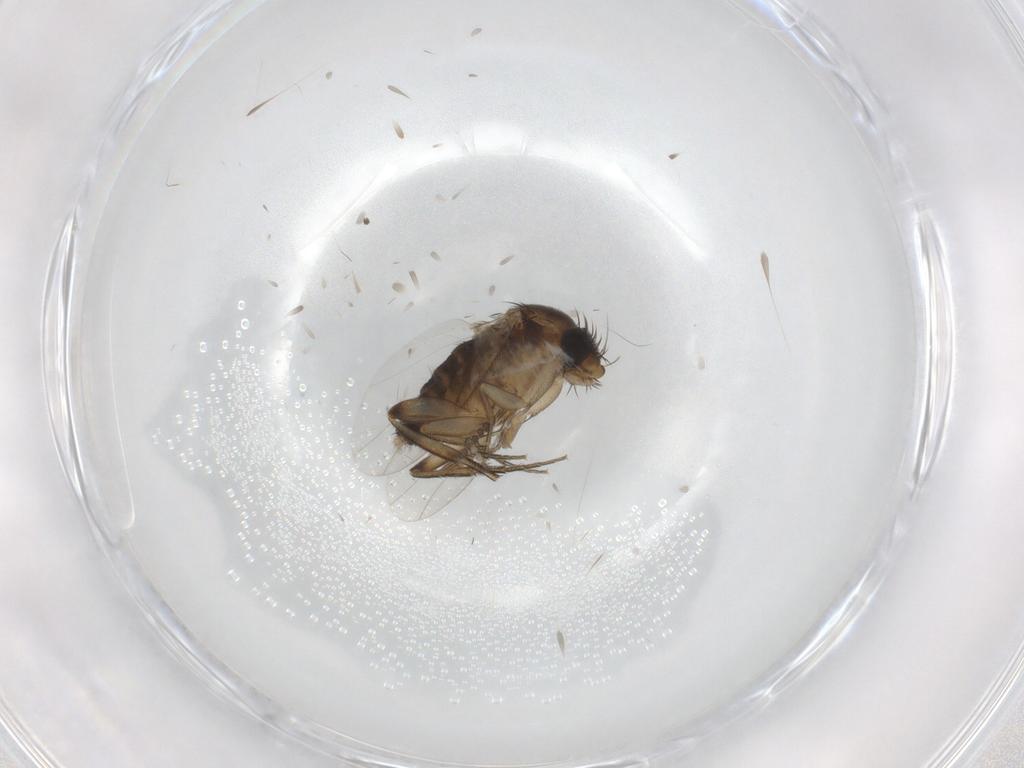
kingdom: Animalia
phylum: Arthropoda
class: Insecta
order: Diptera
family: Phoridae
